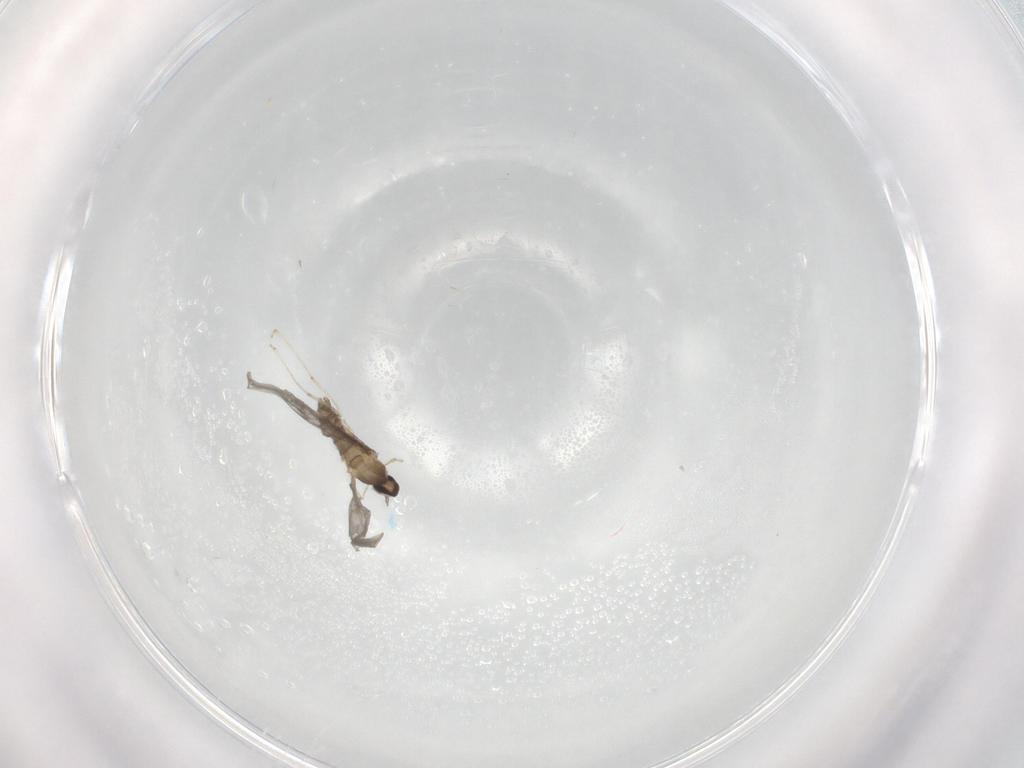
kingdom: Animalia
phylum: Arthropoda
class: Insecta
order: Diptera
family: Cecidomyiidae
